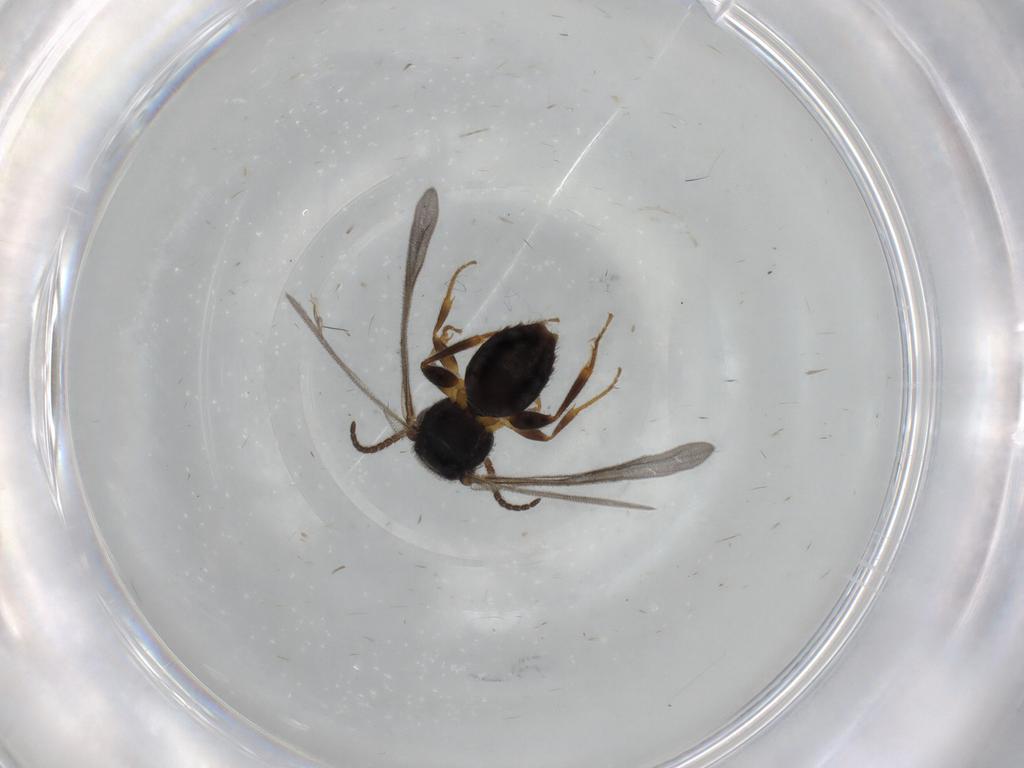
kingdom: Animalia
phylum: Arthropoda
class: Insecta
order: Hymenoptera
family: Bethylidae
